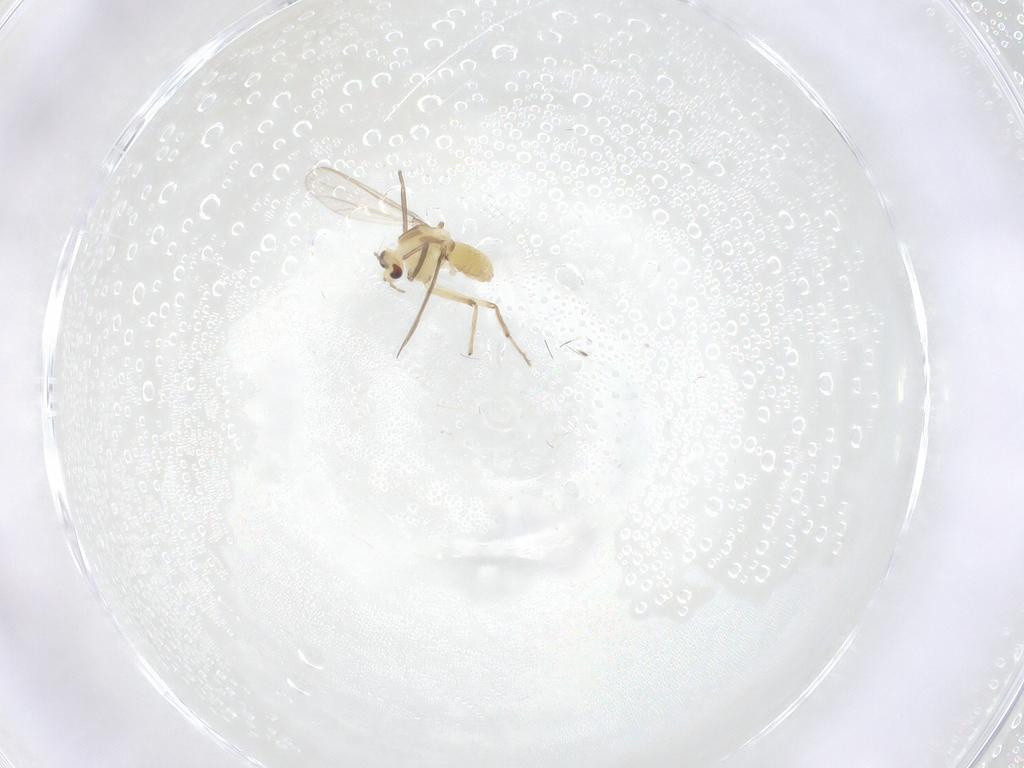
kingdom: Animalia
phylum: Arthropoda
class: Insecta
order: Diptera
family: Chironomidae
